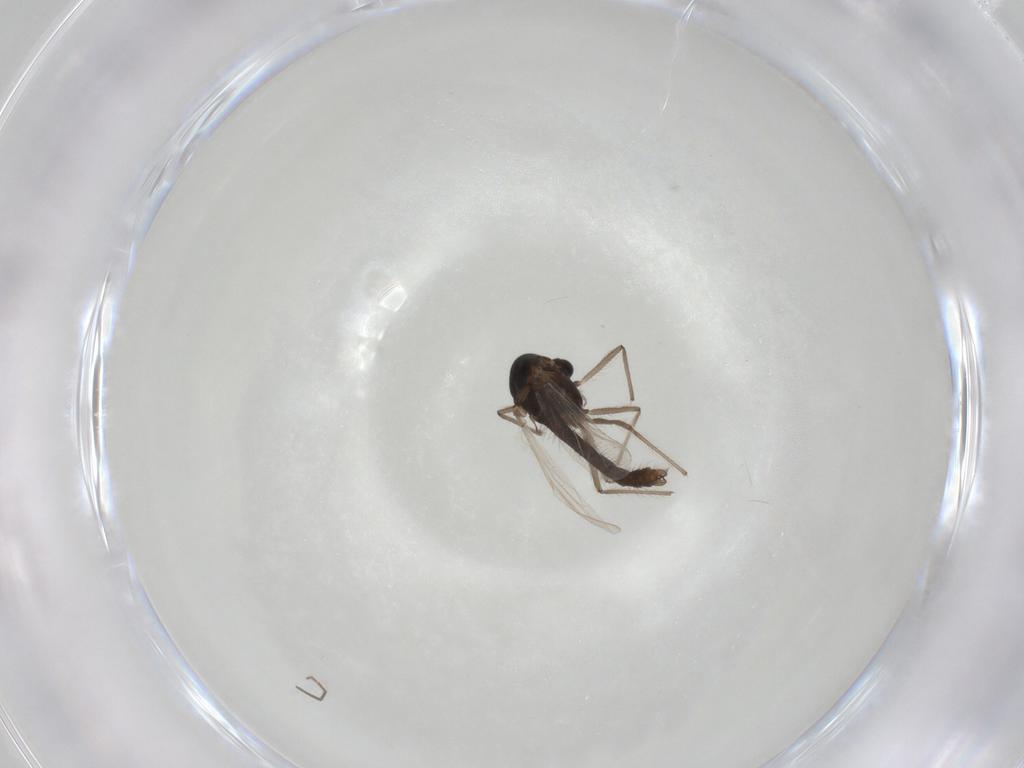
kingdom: Animalia
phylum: Arthropoda
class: Insecta
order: Diptera
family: Chironomidae
